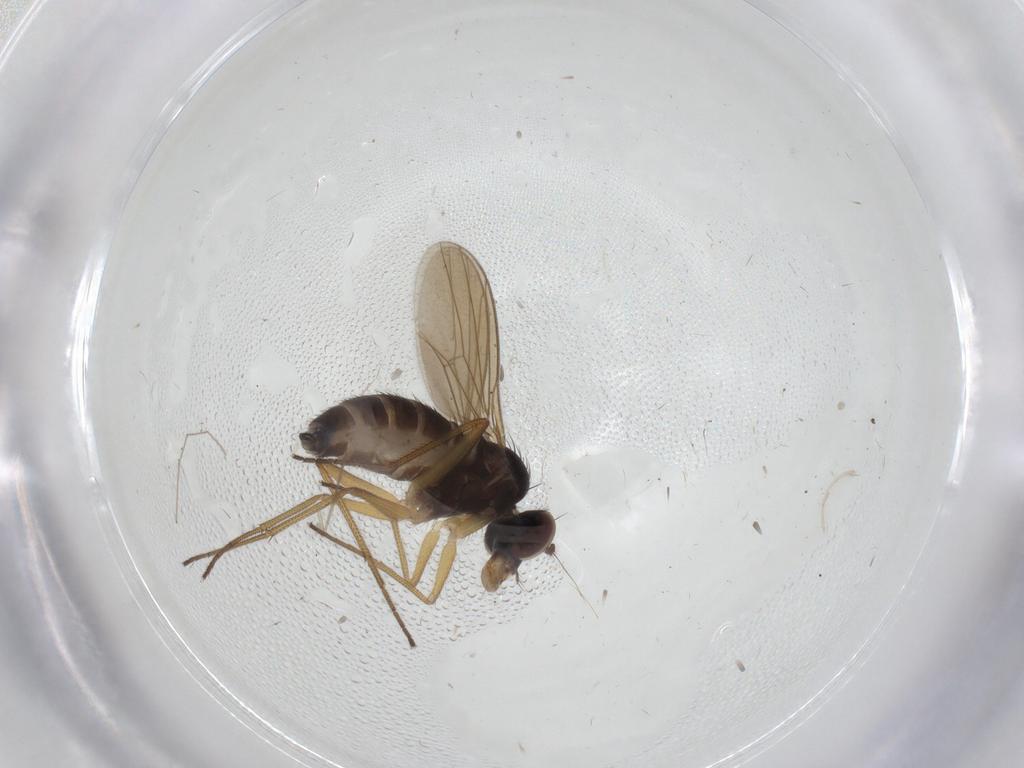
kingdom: Animalia
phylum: Arthropoda
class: Insecta
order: Diptera
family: Dolichopodidae
